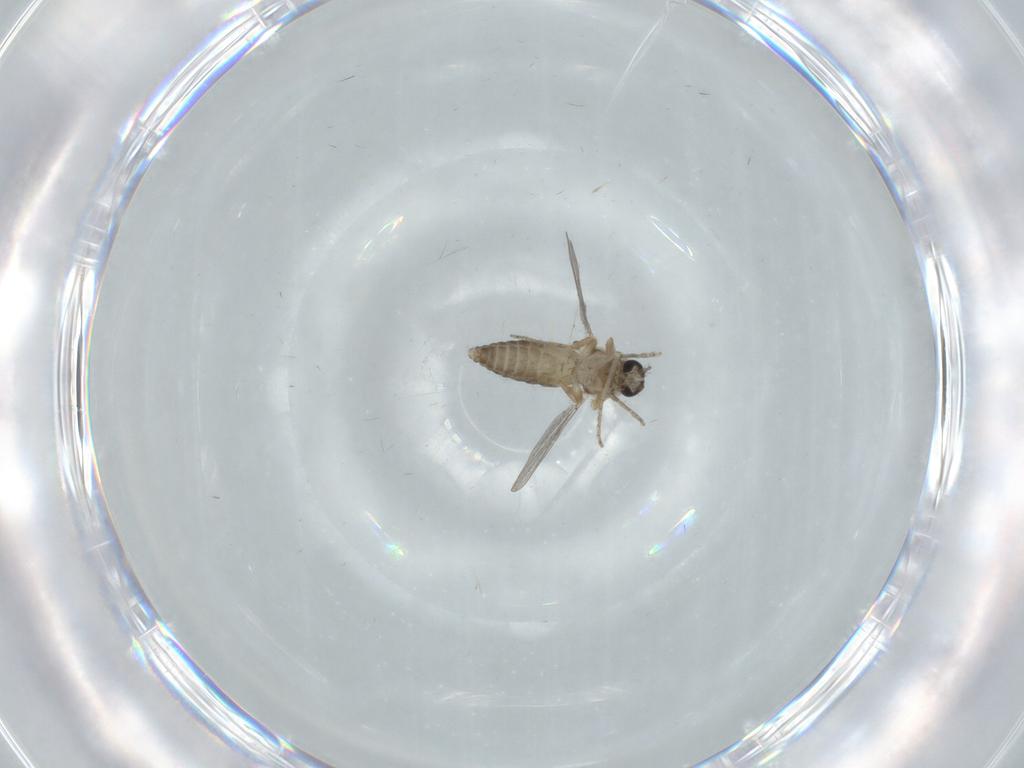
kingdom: Animalia
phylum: Arthropoda
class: Insecta
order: Diptera
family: Ceratopogonidae
